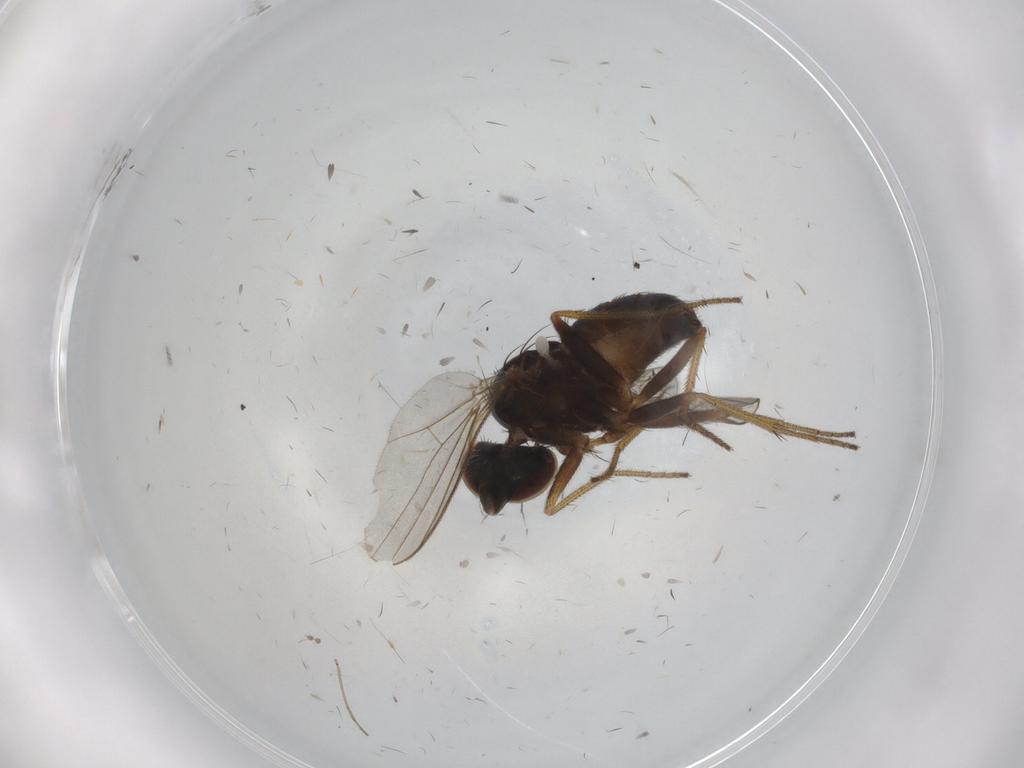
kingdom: Animalia
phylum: Arthropoda
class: Insecta
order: Diptera
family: Dolichopodidae
